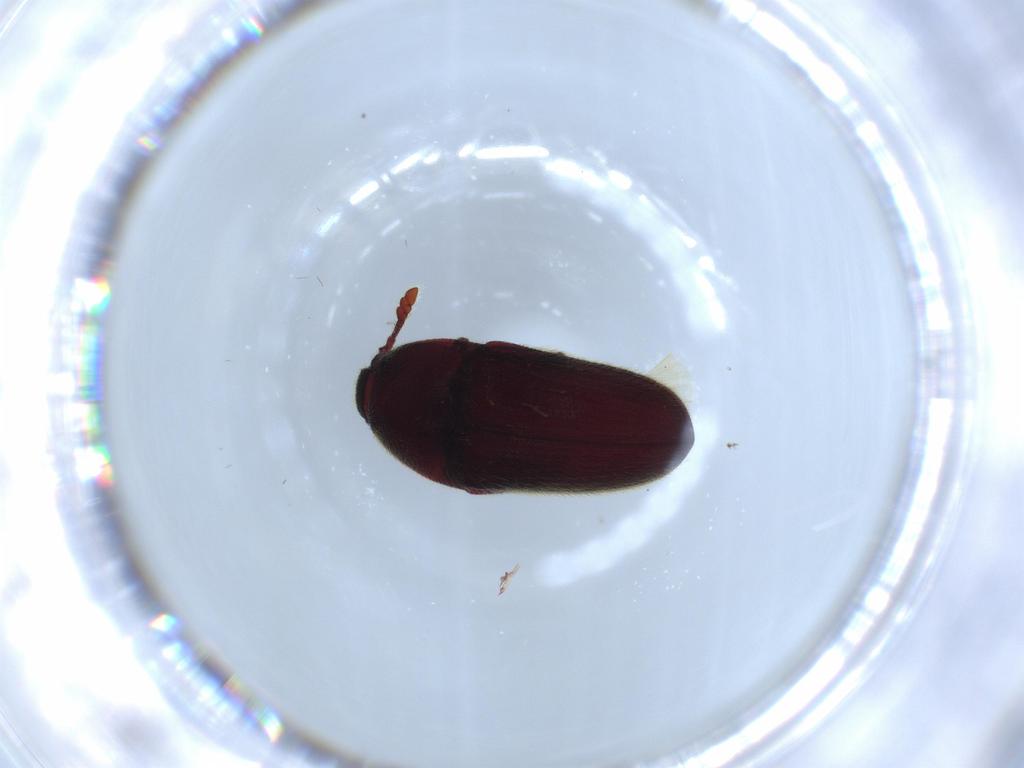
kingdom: Animalia
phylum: Arthropoda
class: Insecta
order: Coleoptera
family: Throscidae
